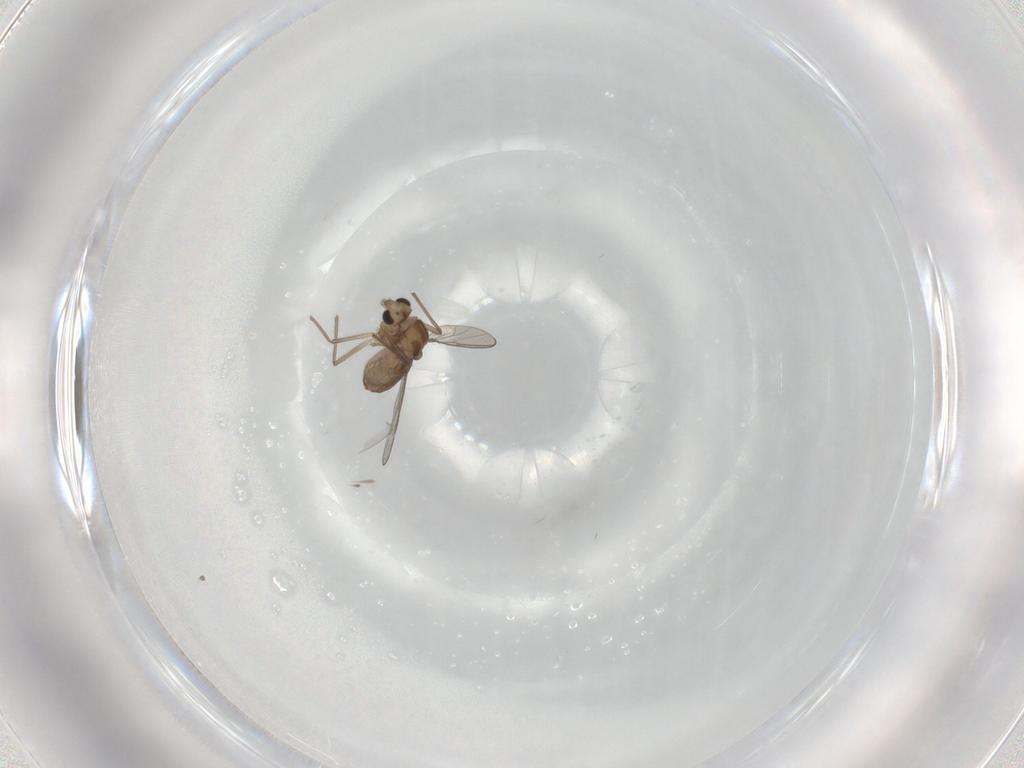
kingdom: Animalia
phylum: Arthropoda
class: Insecta
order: Diptera
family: Chironomidae
